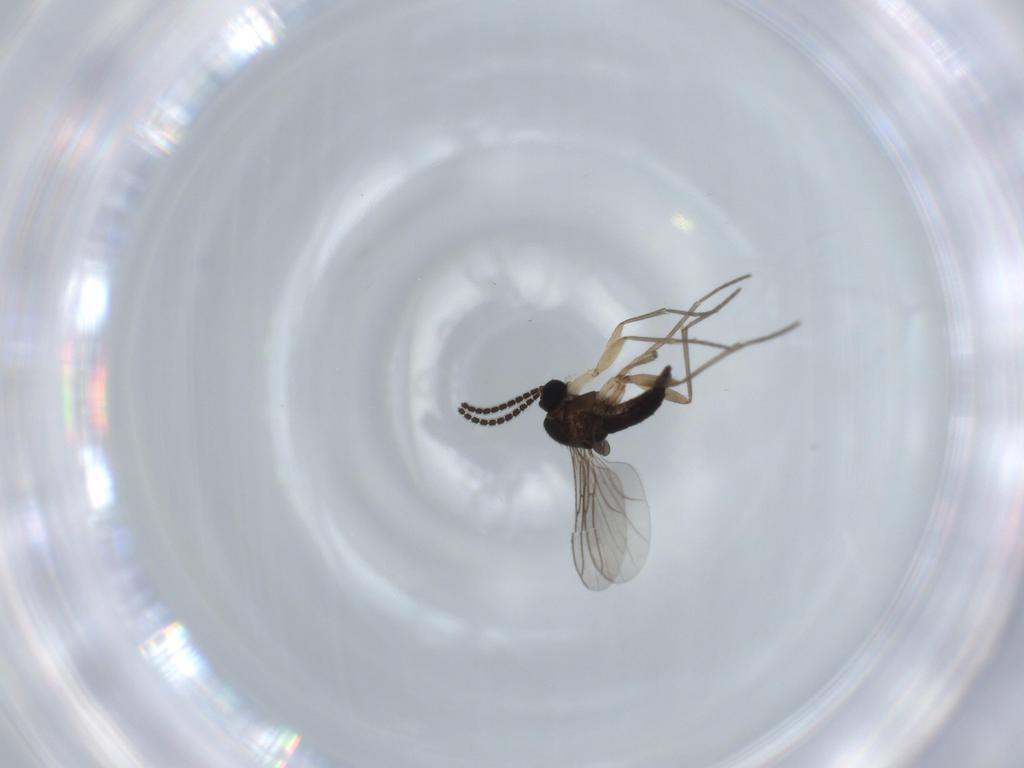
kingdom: Animalia
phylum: Arthropoda
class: Insecta
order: Diptera
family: Sciaridae
